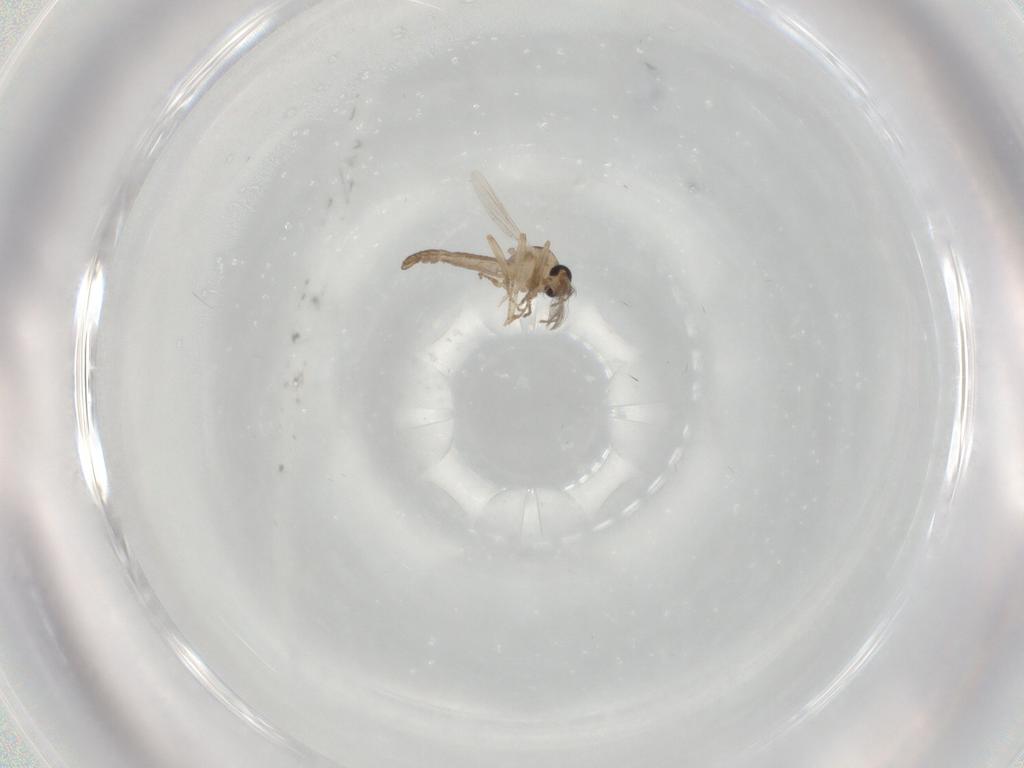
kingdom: Animalia
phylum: Arthropoda
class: Insecta
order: Diptera
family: Ceratopogonidae
